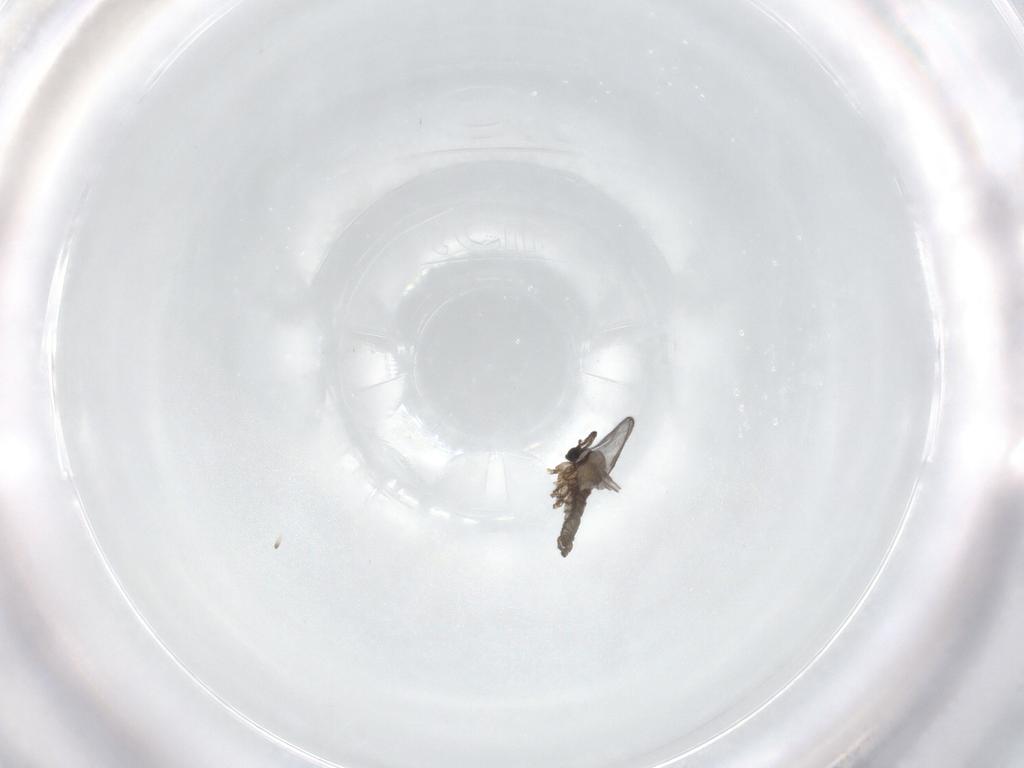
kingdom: Animalia
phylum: Arthropoda
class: Insecta
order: Diptera
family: Sciaridae
